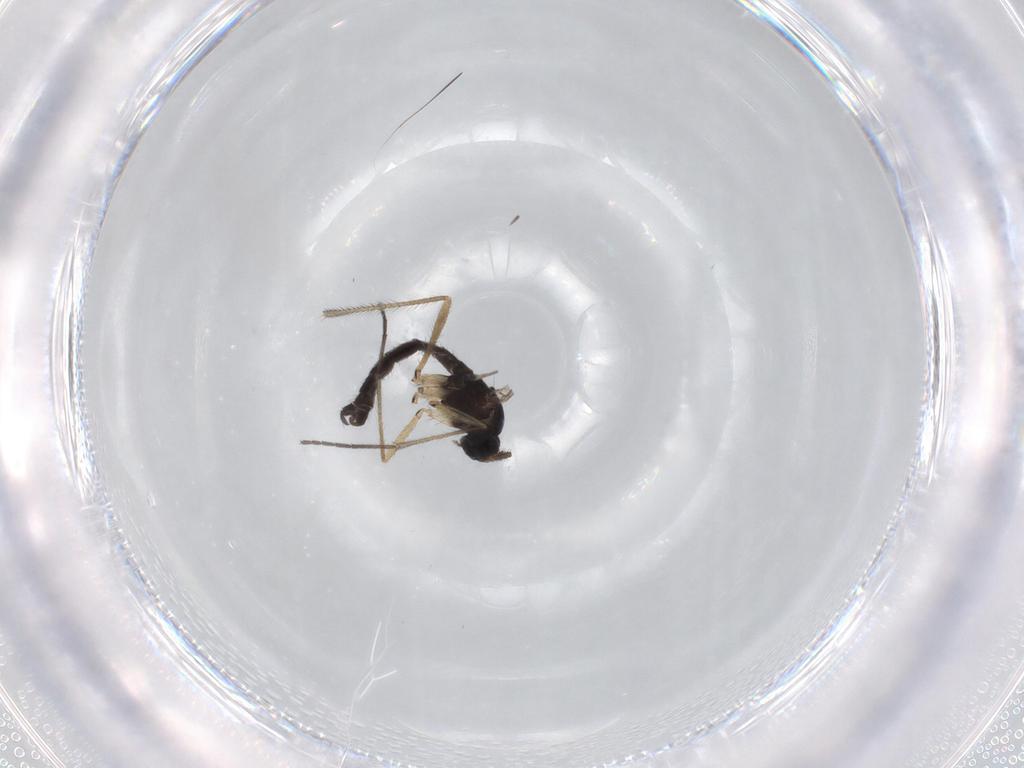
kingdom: Animalia
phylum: Arthropoda
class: Insecta
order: Diptera
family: Sciaridae
